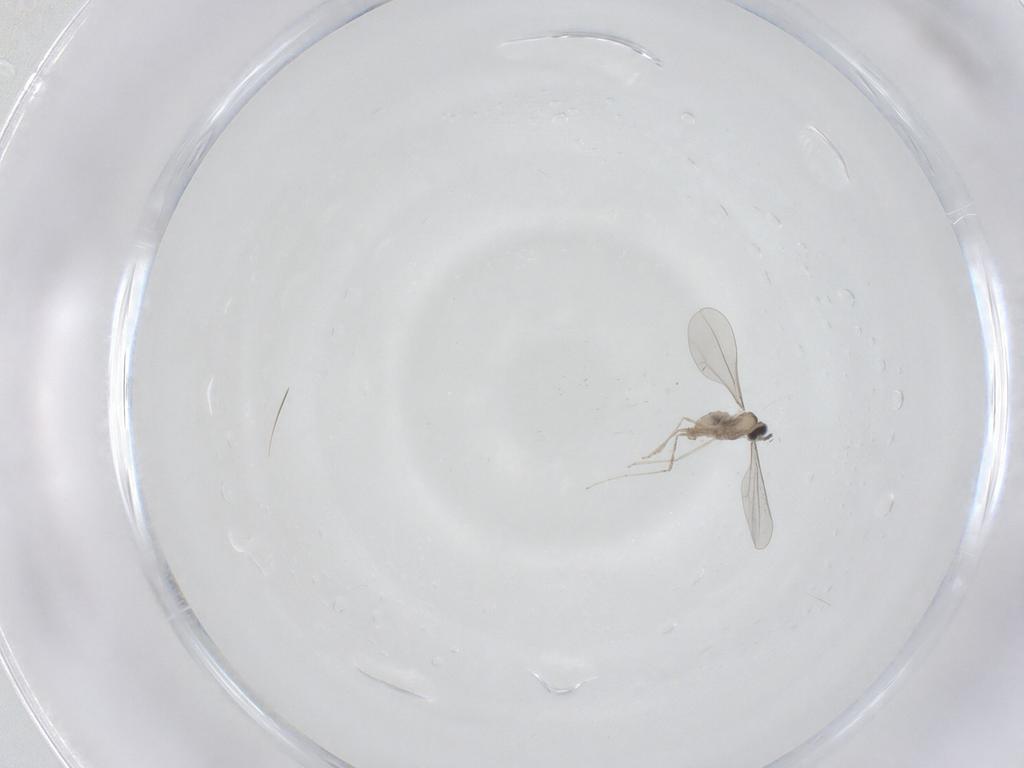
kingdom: Animalia
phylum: Arthropoda
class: Insecta
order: Diptera
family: Cecidomyiidae
